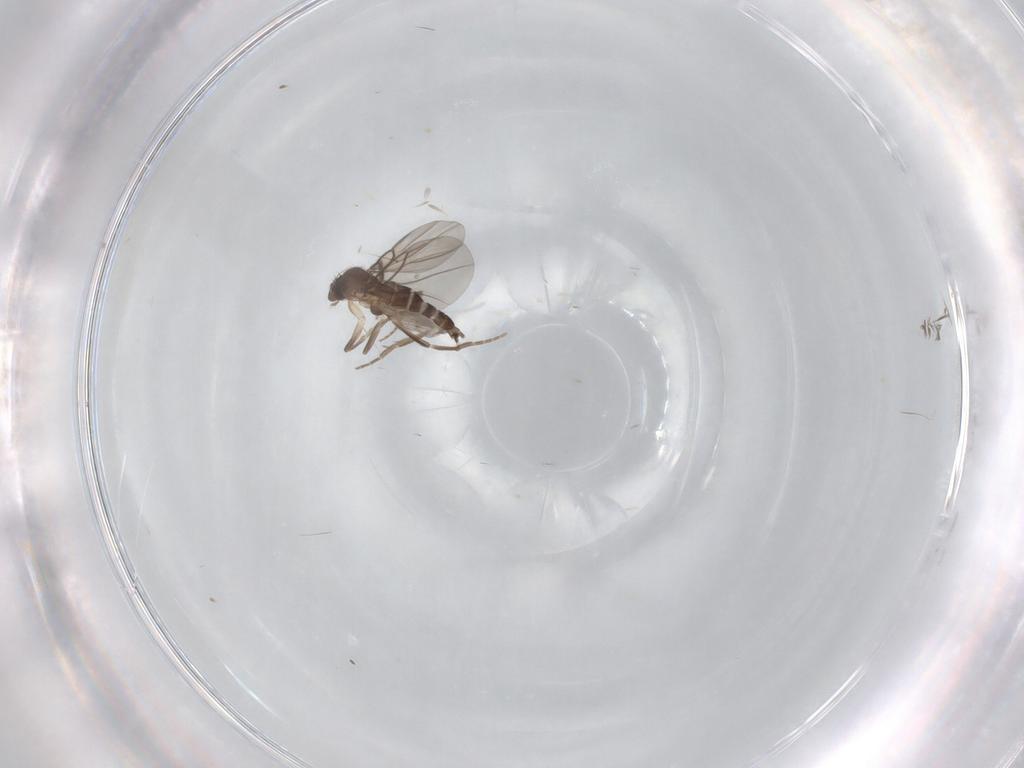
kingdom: Animalia
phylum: Arthropoda
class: Insecta
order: Diptera
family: Phoridae
